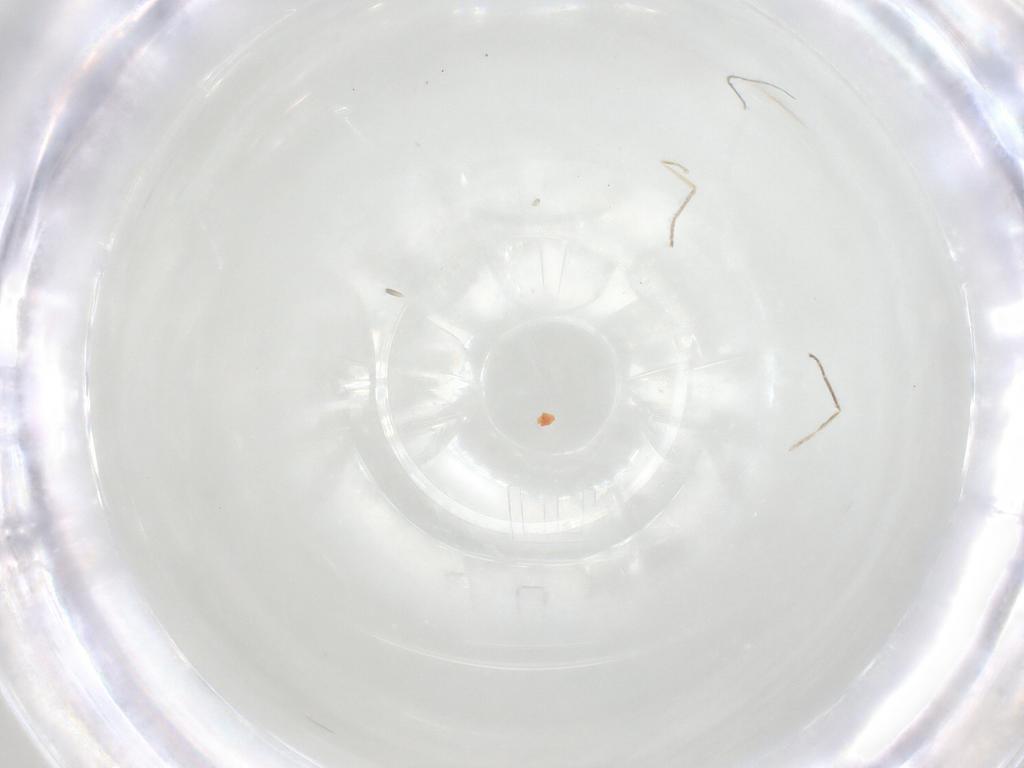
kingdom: Animalia
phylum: Arthropoda
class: Insecta
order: Diptera
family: Cecidomyiidae
